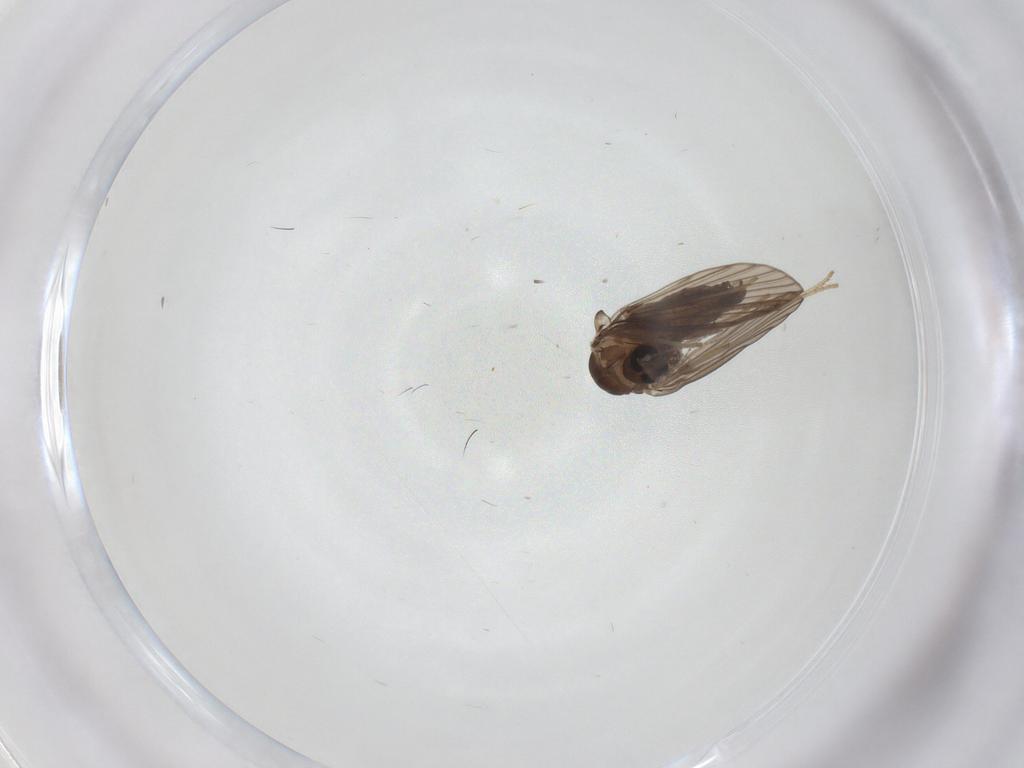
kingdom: Animalia
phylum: Arthropoda
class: Insecta
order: Diptera
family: Psychodidae
